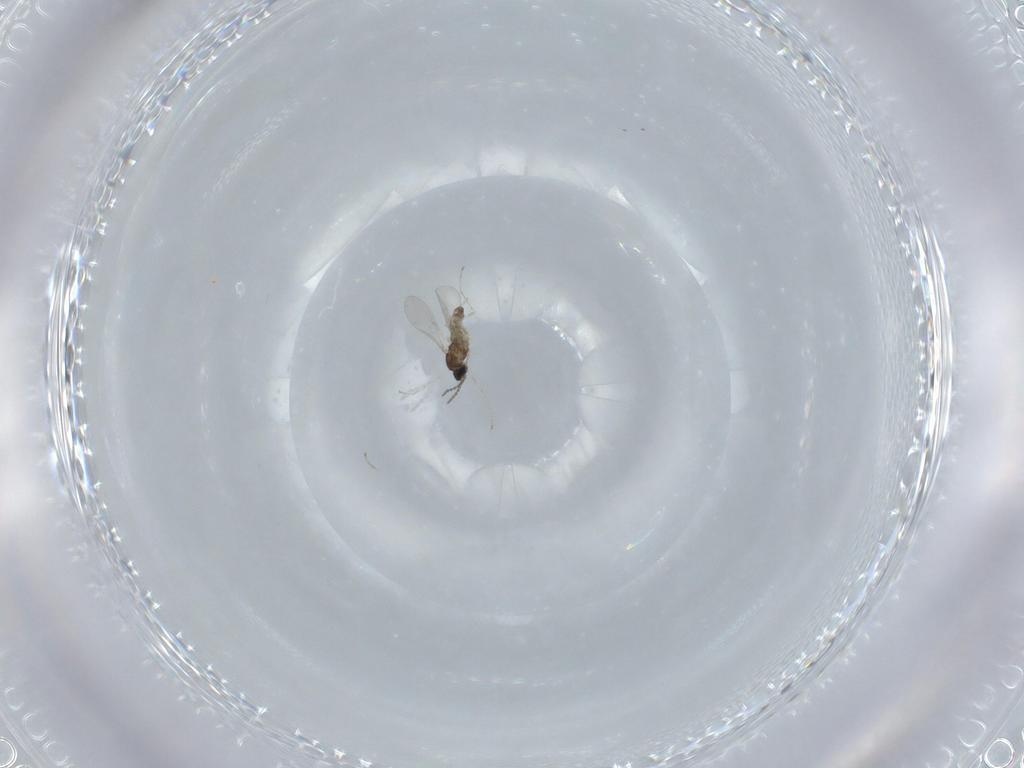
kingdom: Animalia
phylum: Arthropoda
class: Insecta
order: Diptera
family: Cecidomyiidae
